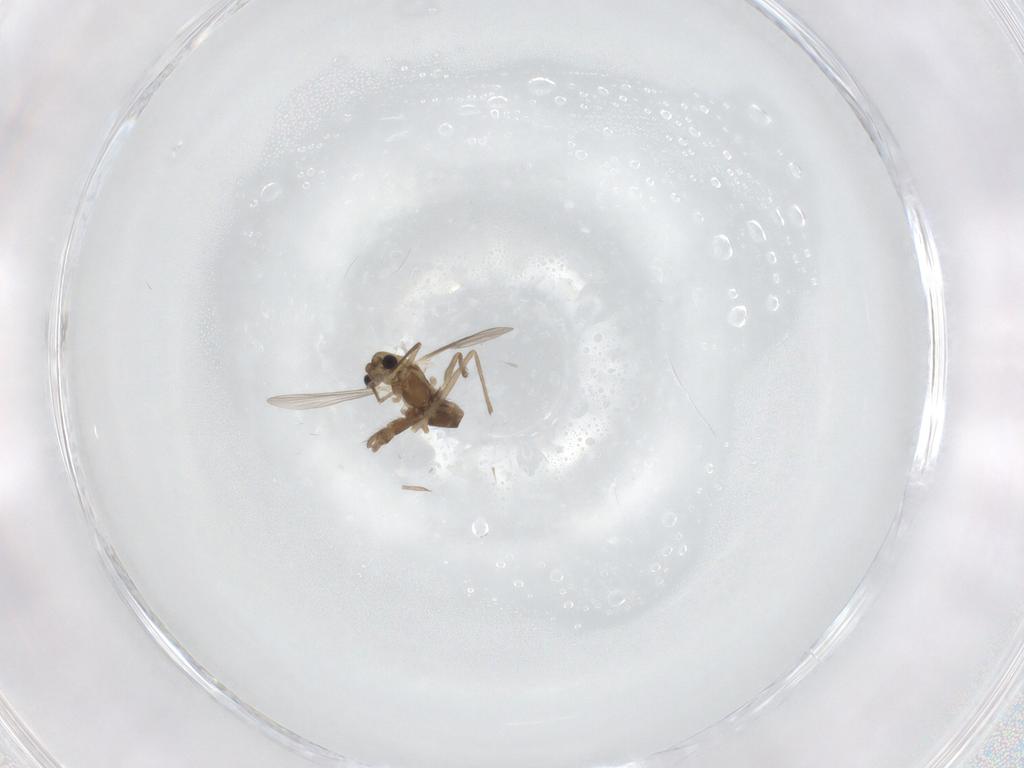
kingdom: Animalia
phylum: Arthropoda
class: Insecta
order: Diptera
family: Chironomidae
